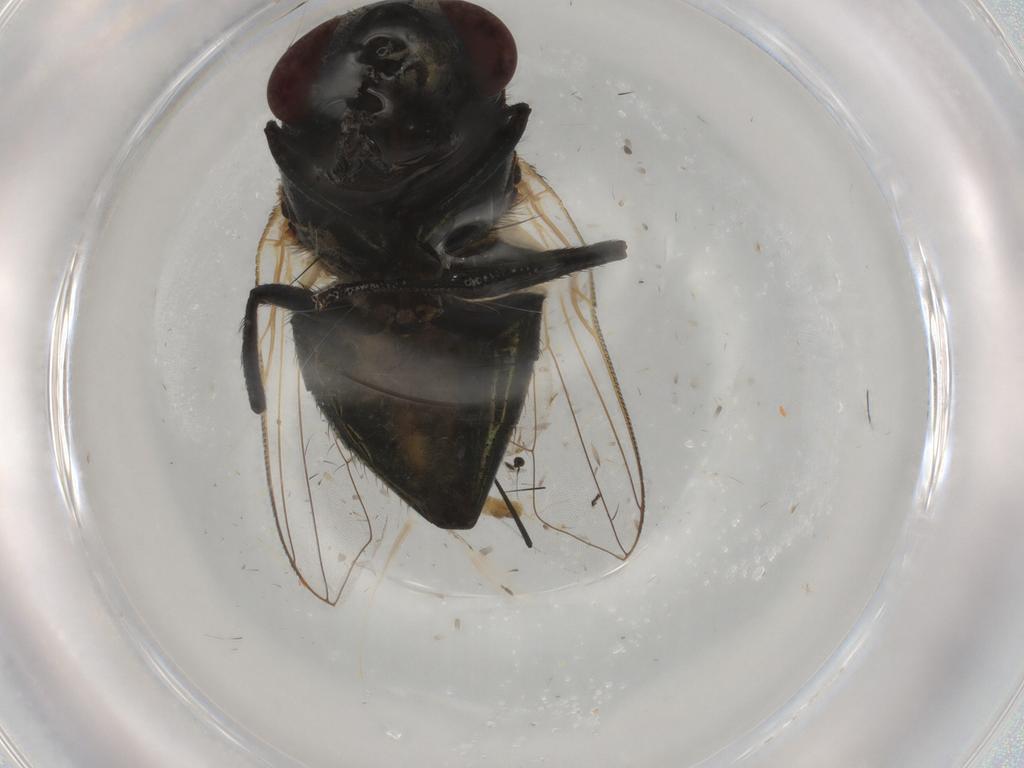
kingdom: Animalia
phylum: Arthropoda
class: Insecta
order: Diptera
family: Muscidae
